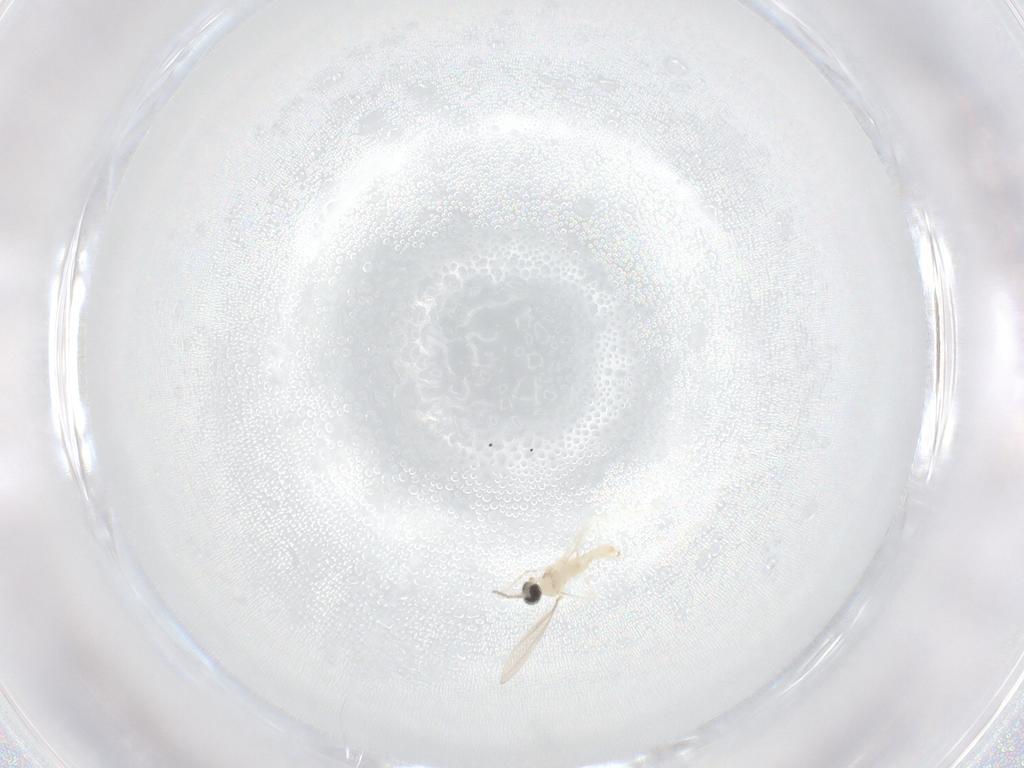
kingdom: Animalia
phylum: Arthropoda
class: Insecta
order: Diptera
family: Cecidomyiidae
